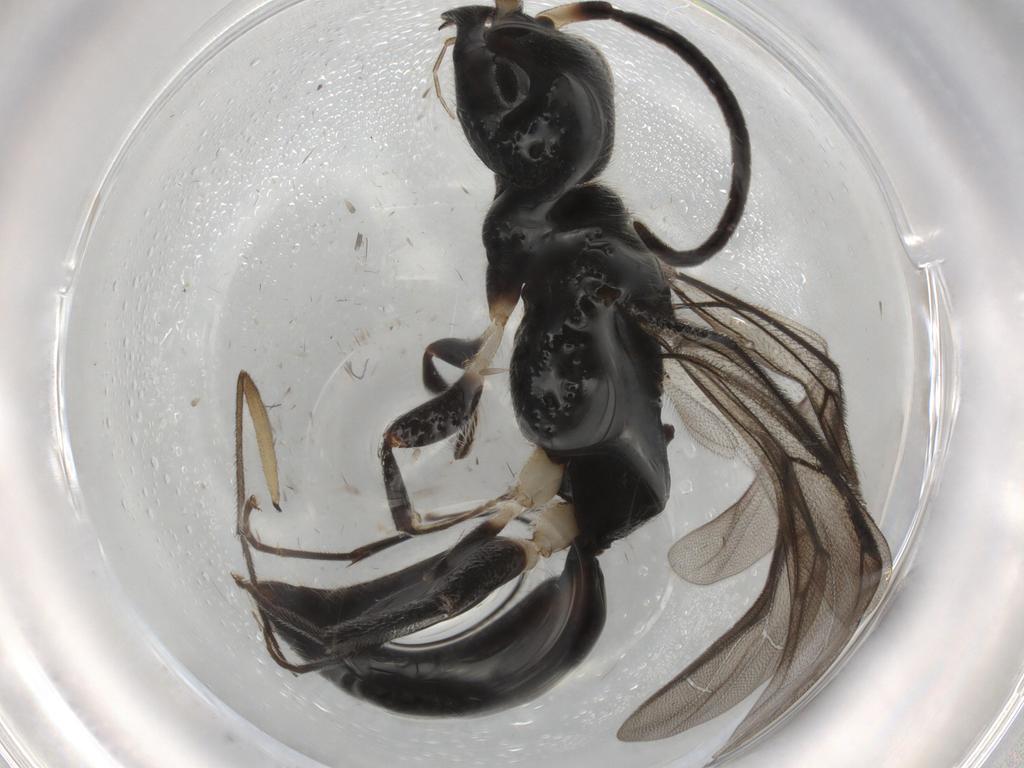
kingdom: Animalia
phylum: Arthropoda
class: Insecta
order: Hymenoptera
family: Bethylidae
